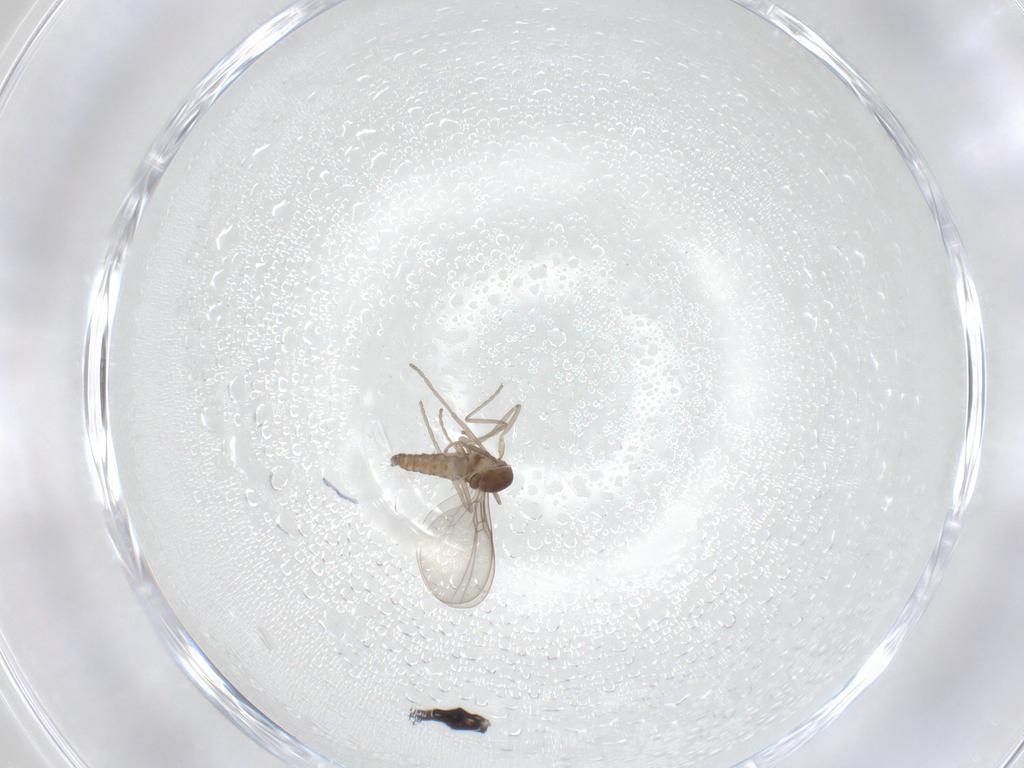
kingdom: Animalia
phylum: Arthropoda
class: Insecta
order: Diptera
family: Cecidomyiidae
